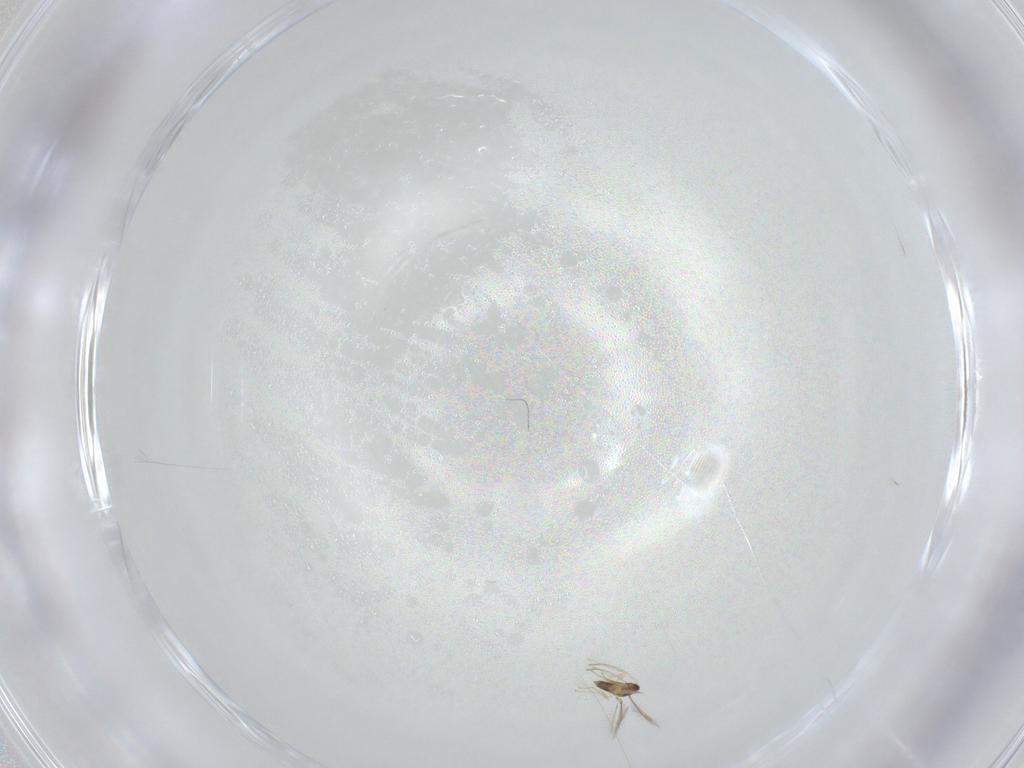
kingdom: Animalia
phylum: Arthropoda
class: Insecta
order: Hymenoptera
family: Mymaridae
